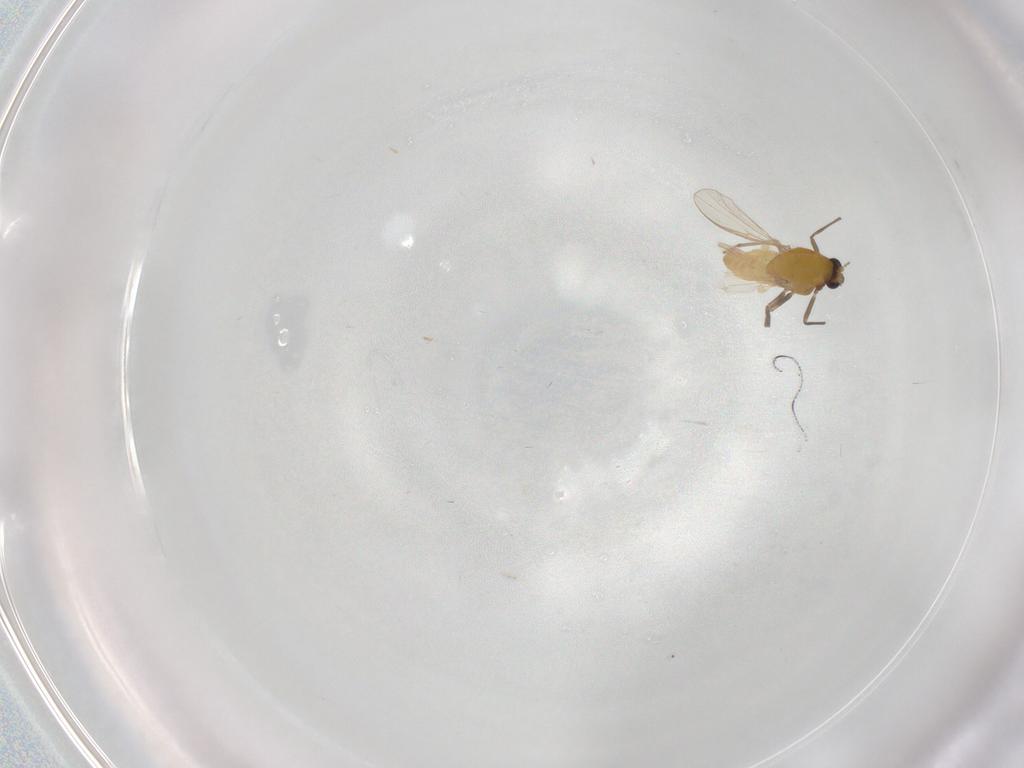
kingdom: Animalia
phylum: Arthropoda
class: Insecta
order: Diptera
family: Chironomidae
